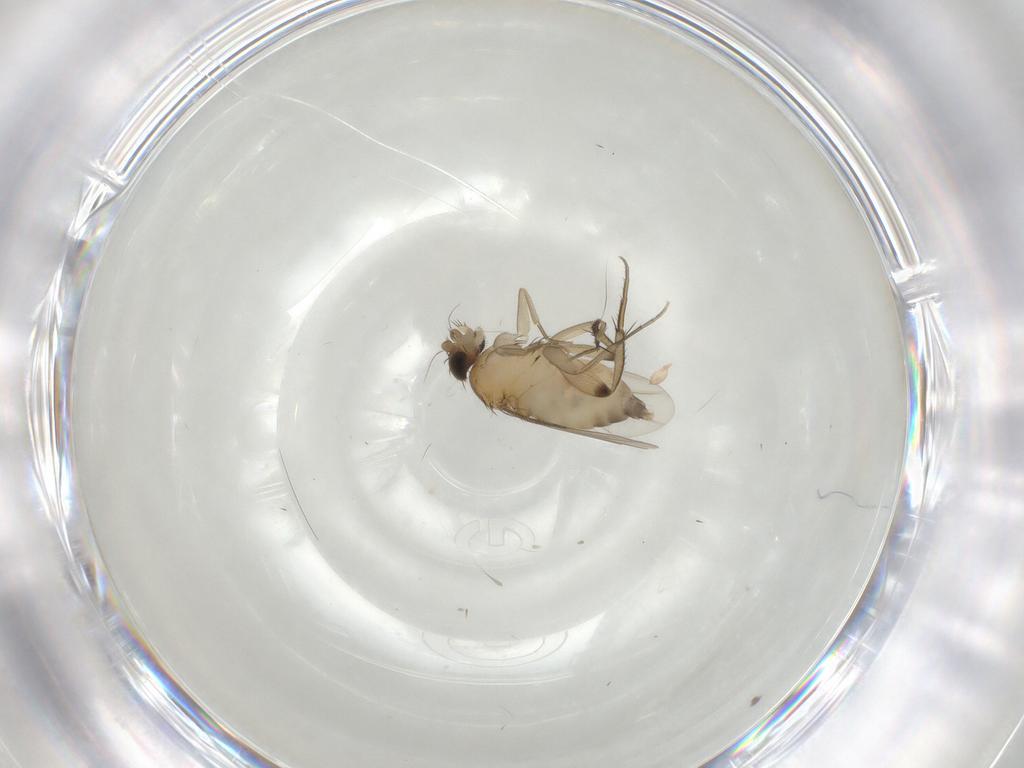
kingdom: Animalia
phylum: Arthropoda
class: Insecta
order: Diptera
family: Phoridae
